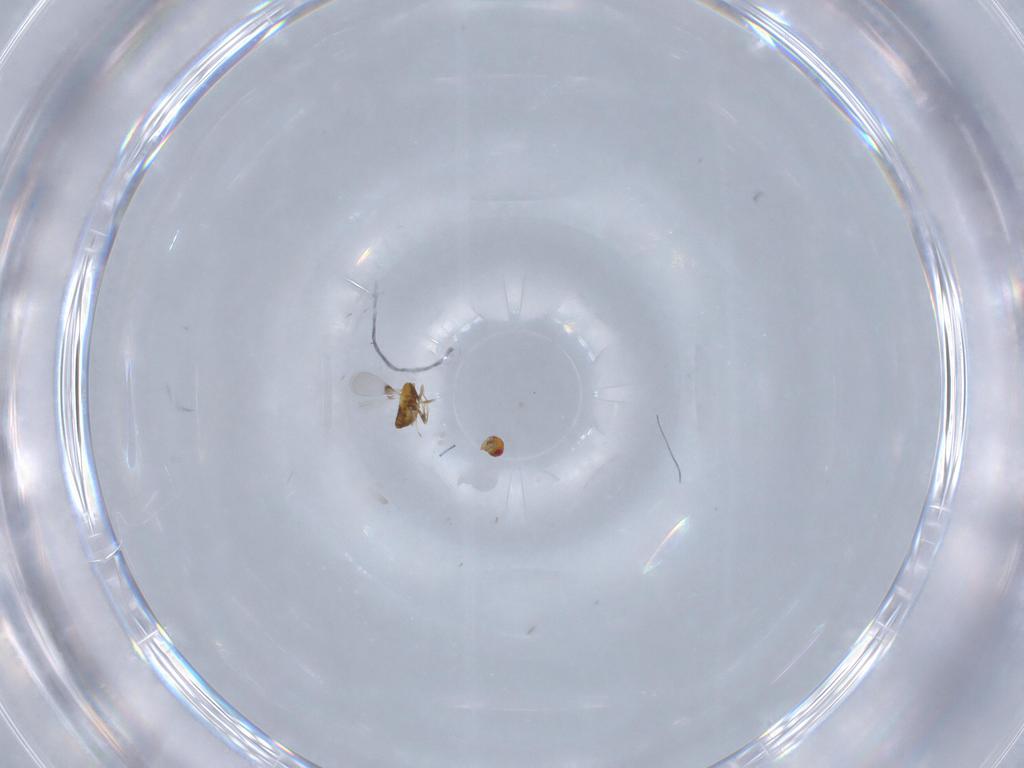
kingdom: Animalia
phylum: Arthropoda
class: Insecta
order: Hymenoptera
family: Trichogrammatidae
